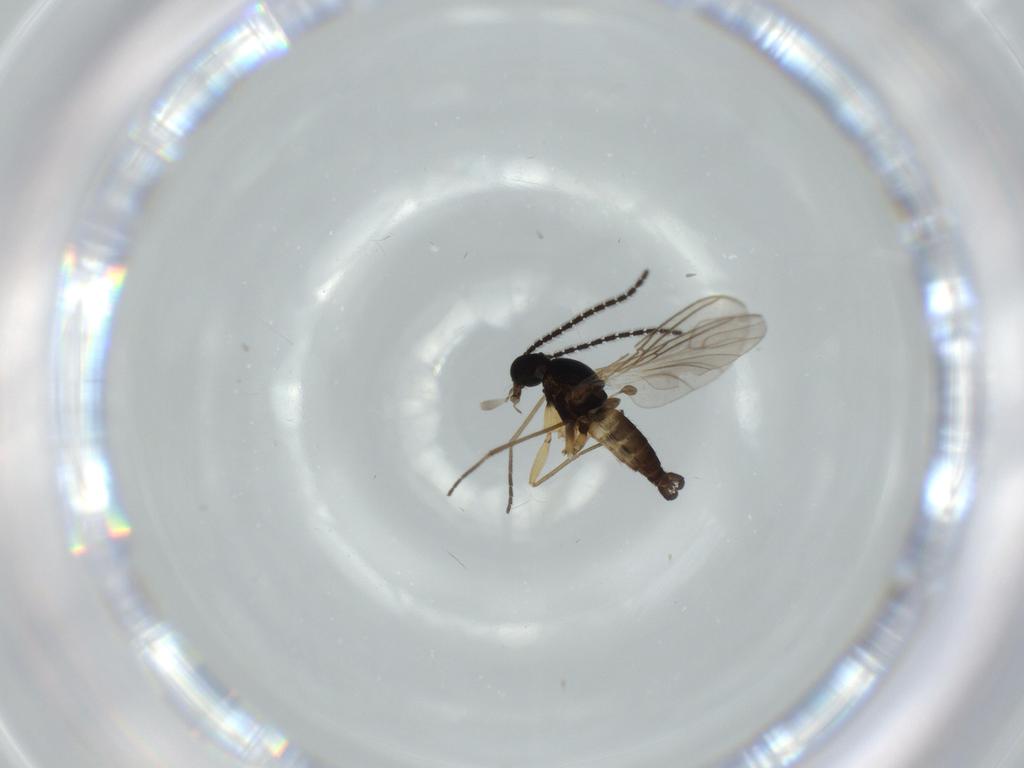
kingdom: Animalia
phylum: Arthropoda
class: Insecta
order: Diptera
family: Sciaridae
